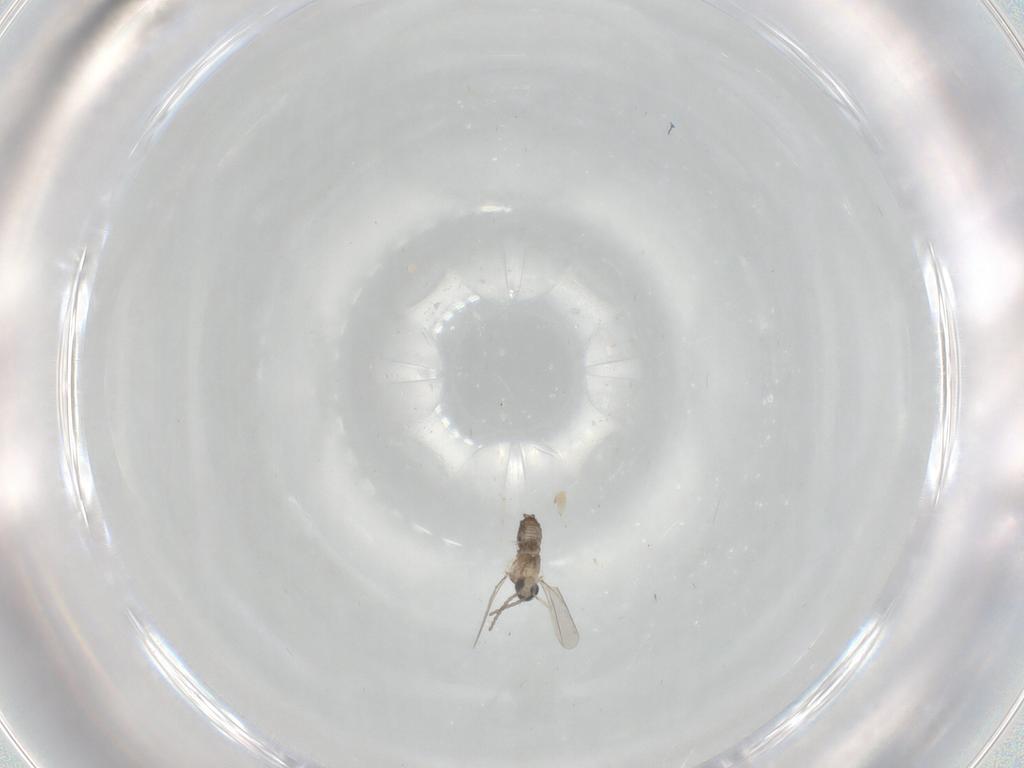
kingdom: Animalia
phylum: Arthropoda
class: Insecta
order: Diptera
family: Cecidomyiidae
